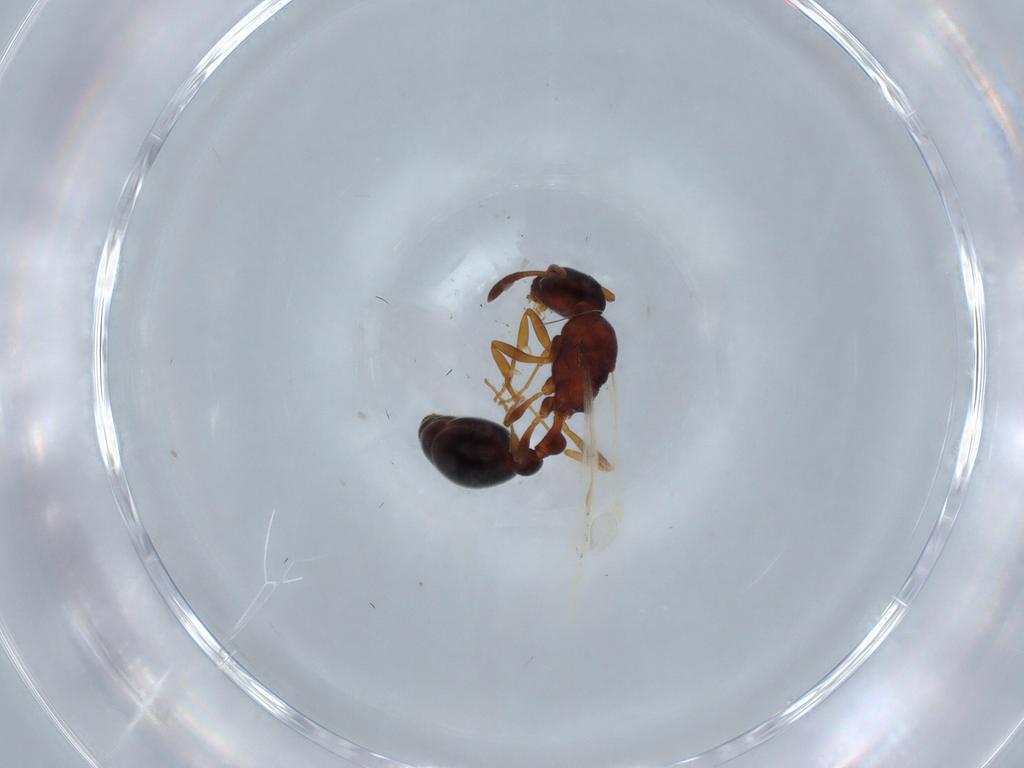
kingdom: Animalia
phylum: Arthropoda
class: Insecta
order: Hymenoptera
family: Formicidae
